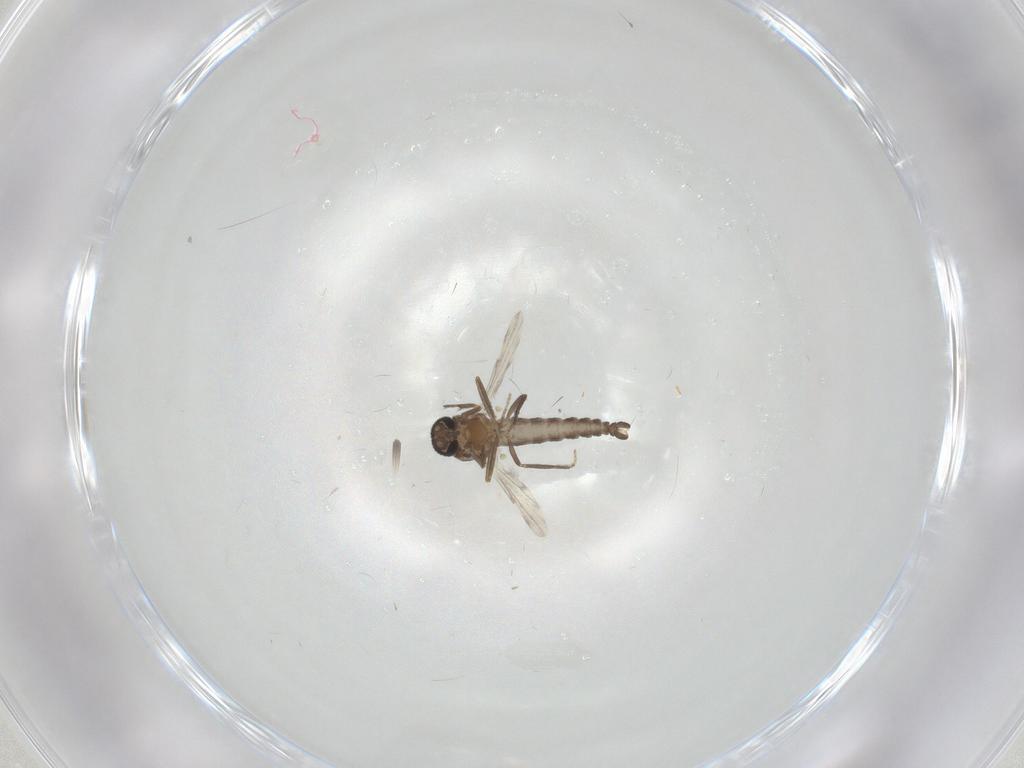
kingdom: Animalia
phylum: Arthropoda
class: Insecta
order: Diptera
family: Ceratopogonidae
